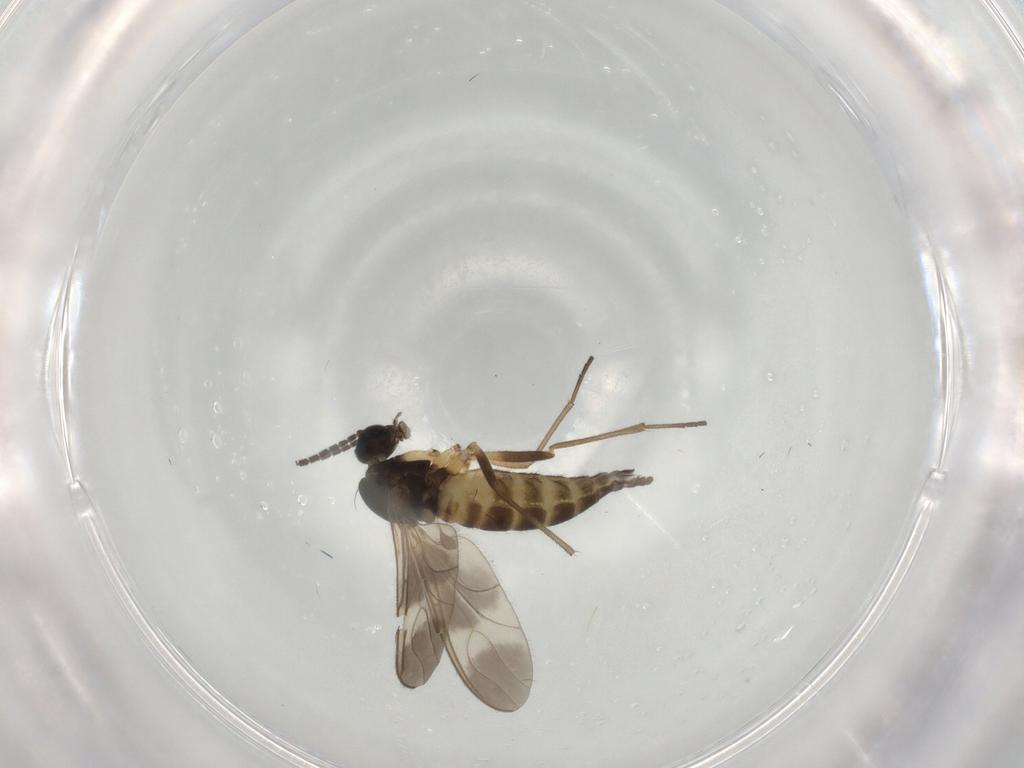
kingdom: Animalia
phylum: Arthropoda
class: Insecta
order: Diptera
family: Sciaridae
